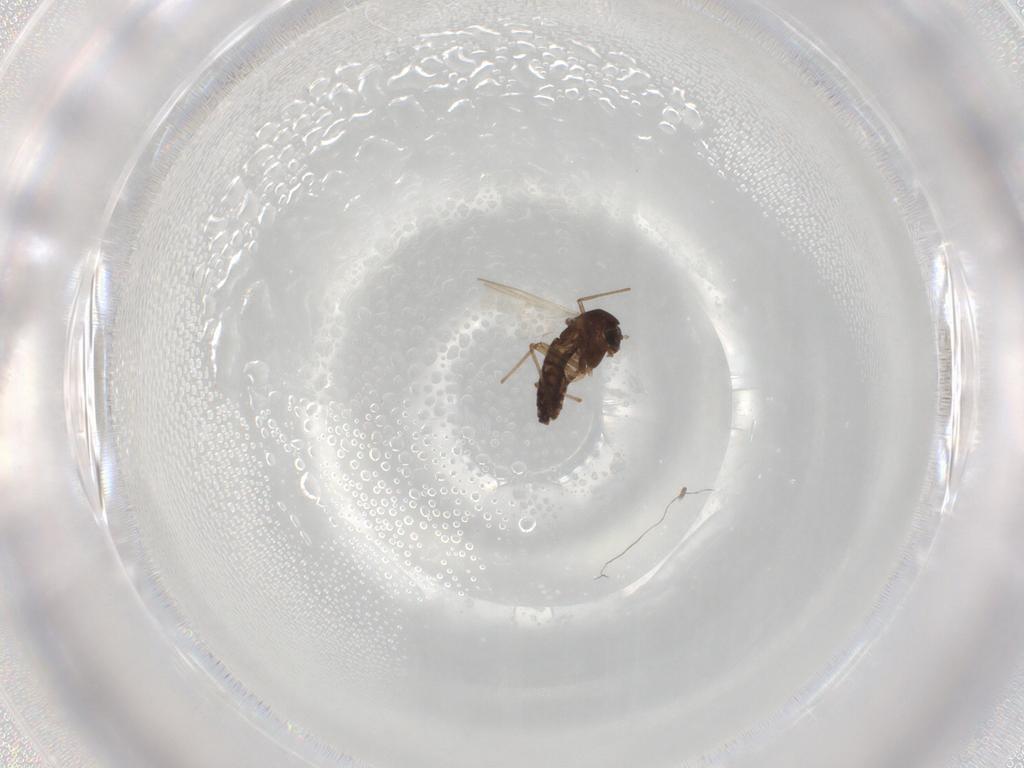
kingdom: Animalia
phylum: Arthropoda
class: Insecta
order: Diptera
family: Chironomidae
